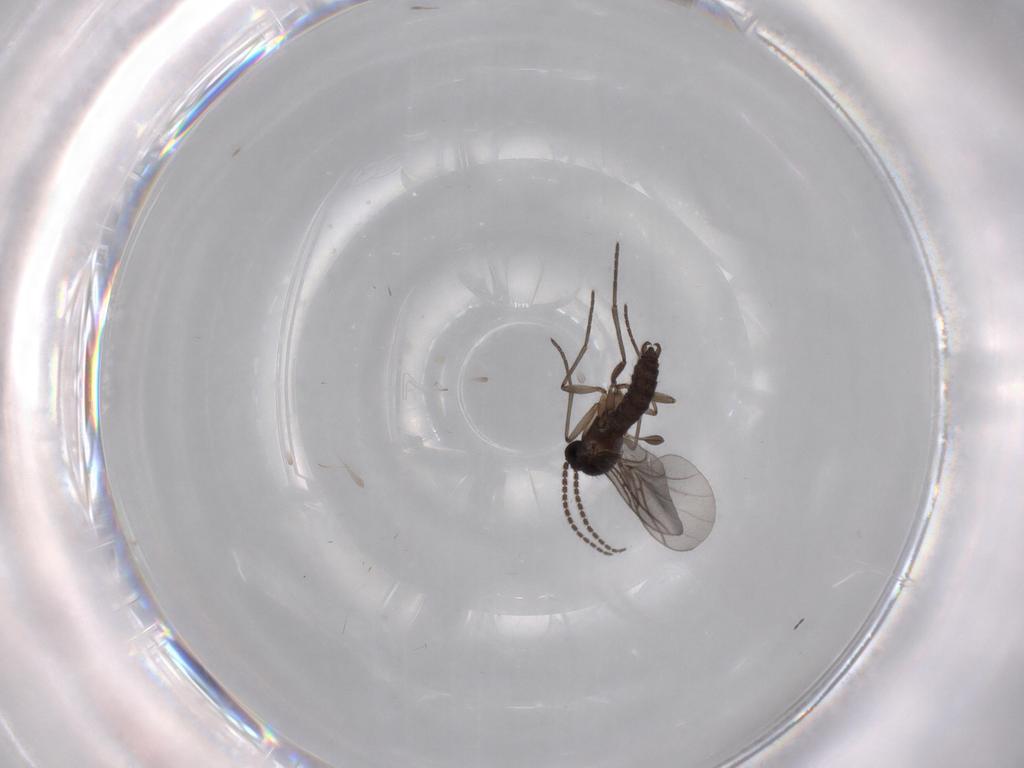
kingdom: Animalia
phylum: Arthropoda
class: Insecta
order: Diptera
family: Cecidomyiidae
